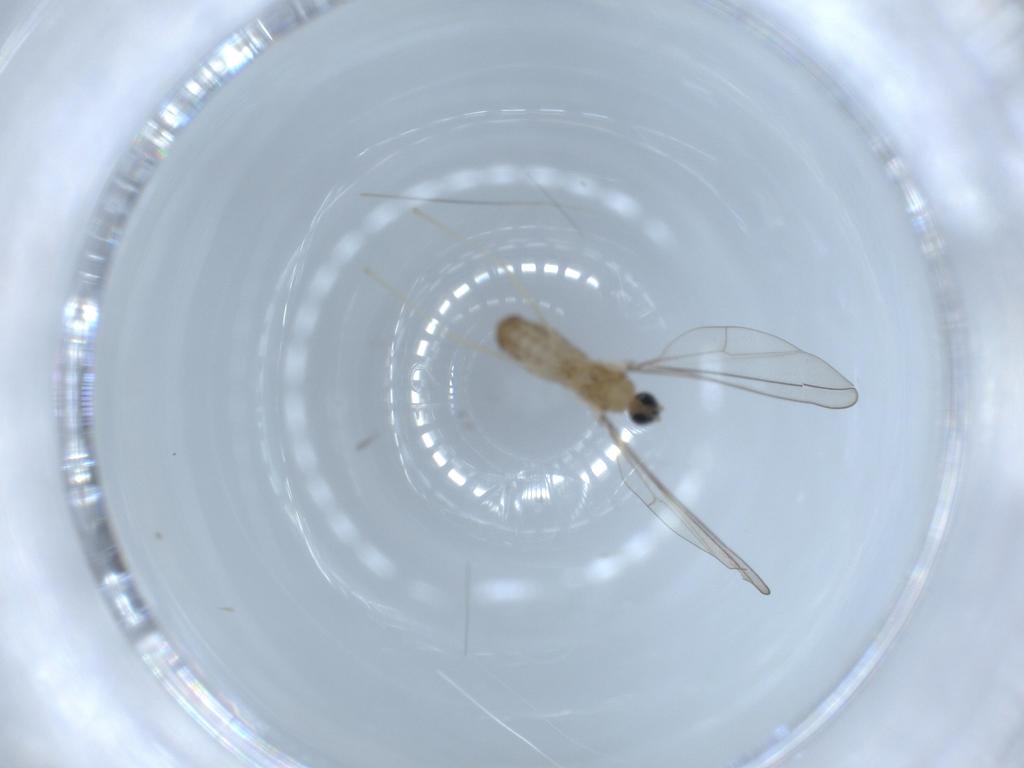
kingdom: Animalia
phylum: Arthropoda
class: Insecta
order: Diptera
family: Cecidomyiidae
